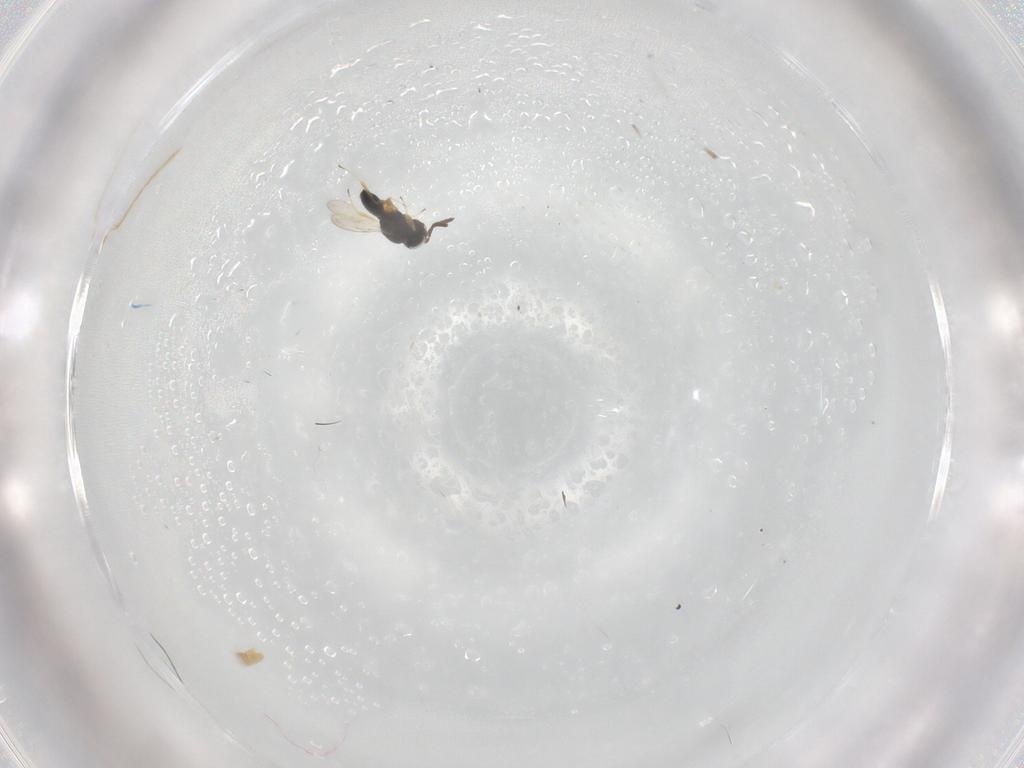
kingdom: Animalia
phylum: Arthropoda
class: Insecta
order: Hymenoptera
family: Scelionidae
